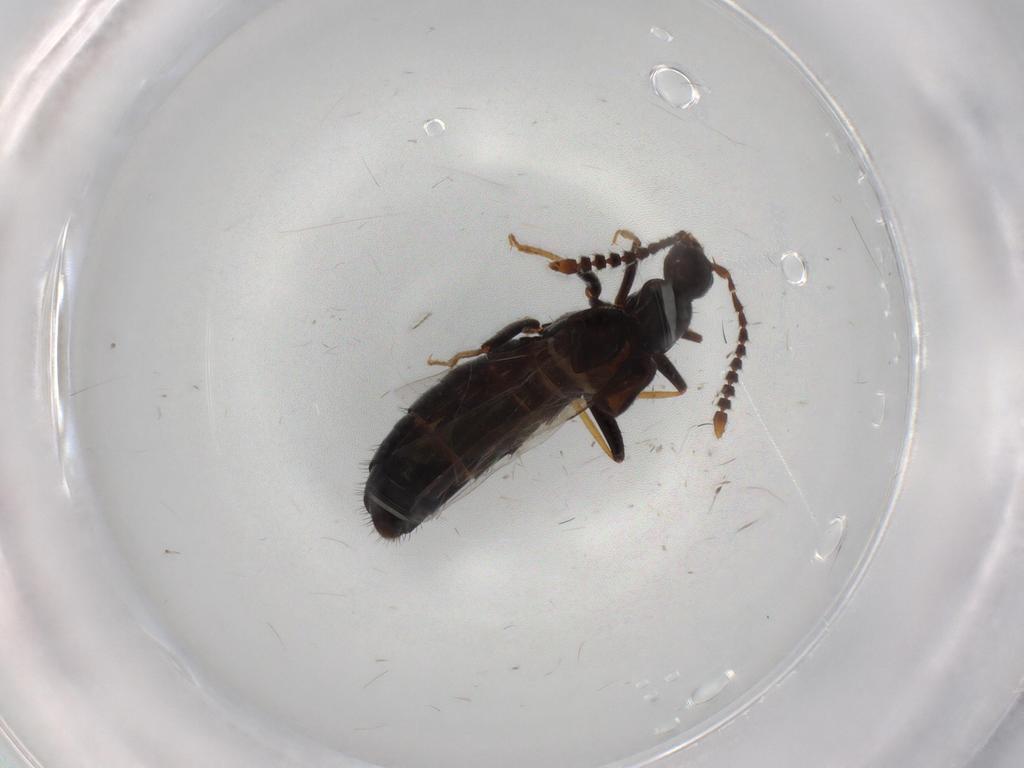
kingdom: Animalia
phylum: Arthropoda
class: Insecta
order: Coleoptera
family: Staphylinidae
